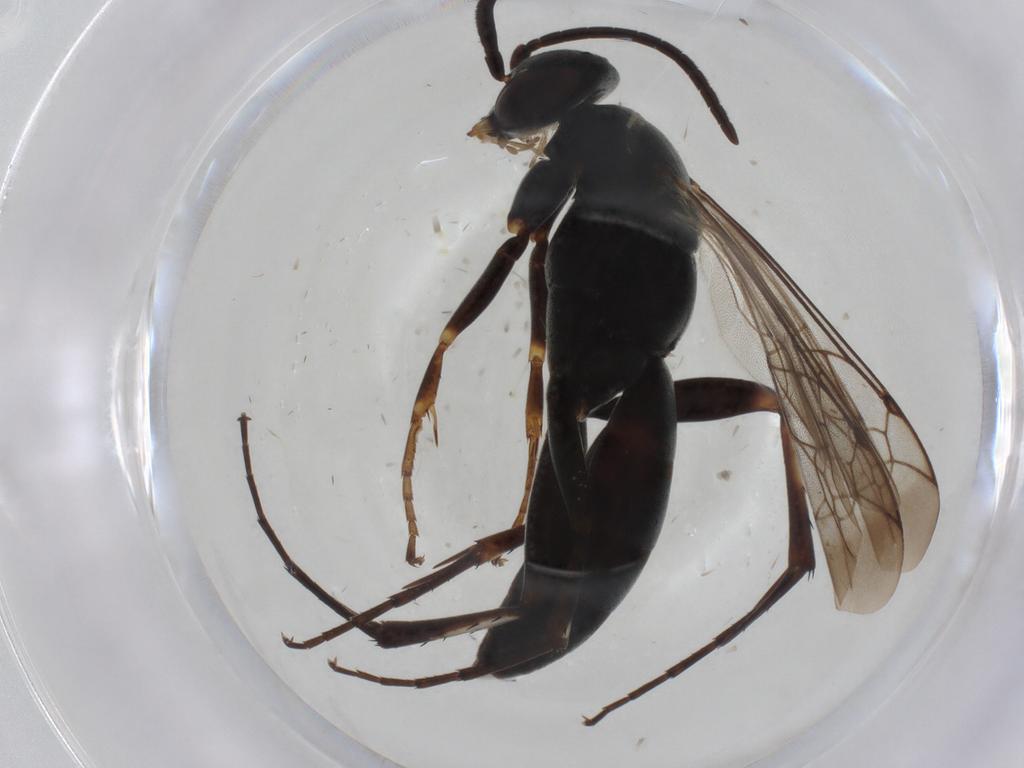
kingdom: Animalia
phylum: Arthropoda
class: Insecta
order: Hymenoptera
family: Pompilidae
